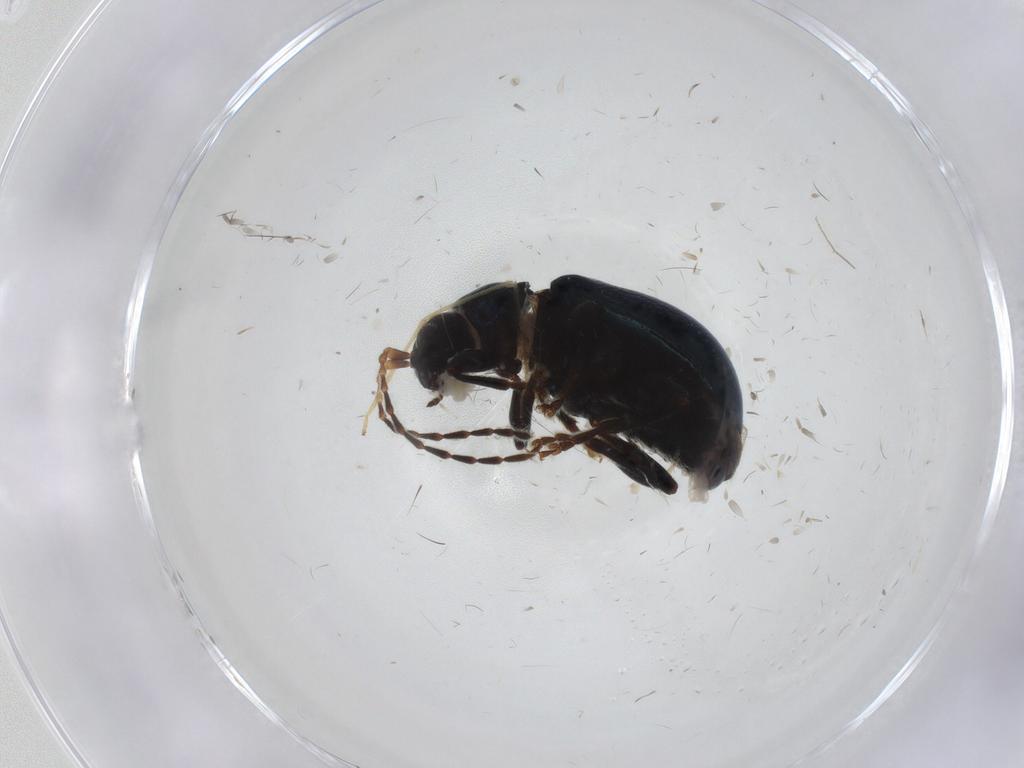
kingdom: Animalia
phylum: Arthropoda
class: Insecta
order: Coleoptera
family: Chrysomelidae
